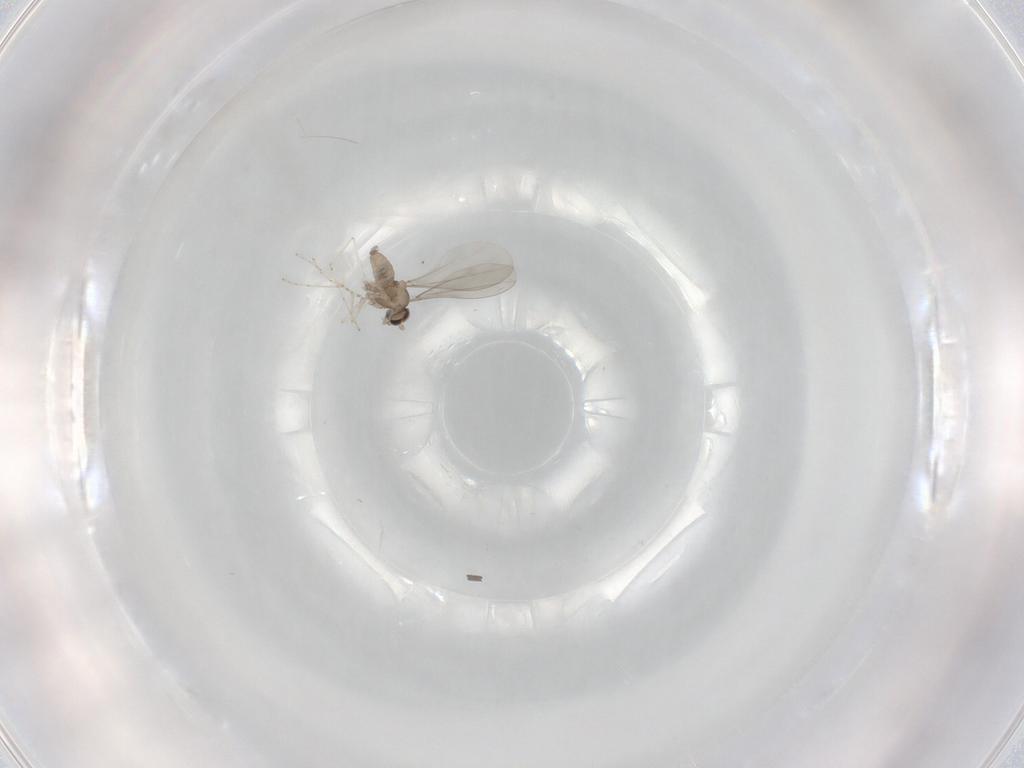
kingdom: Animalia
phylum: Arthropoda
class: Insecta
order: Diptera
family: Cecidomyiidae
